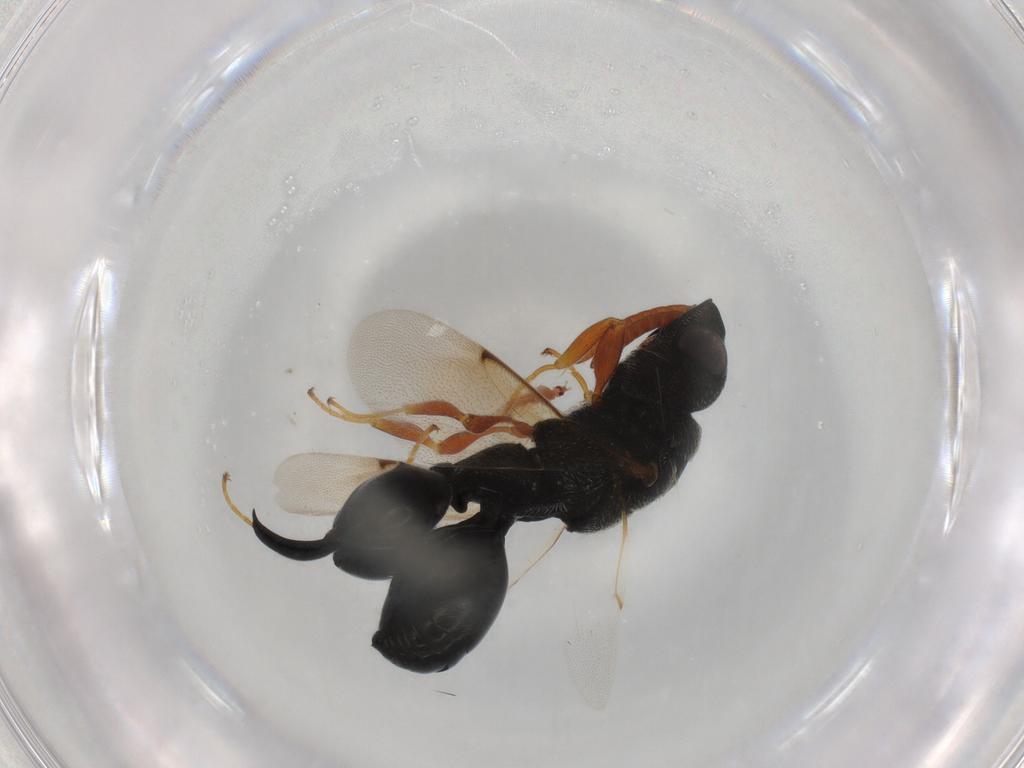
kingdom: Animalia
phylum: Arthropoda
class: Insecta
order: Hymenoptera
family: Chalcididae
